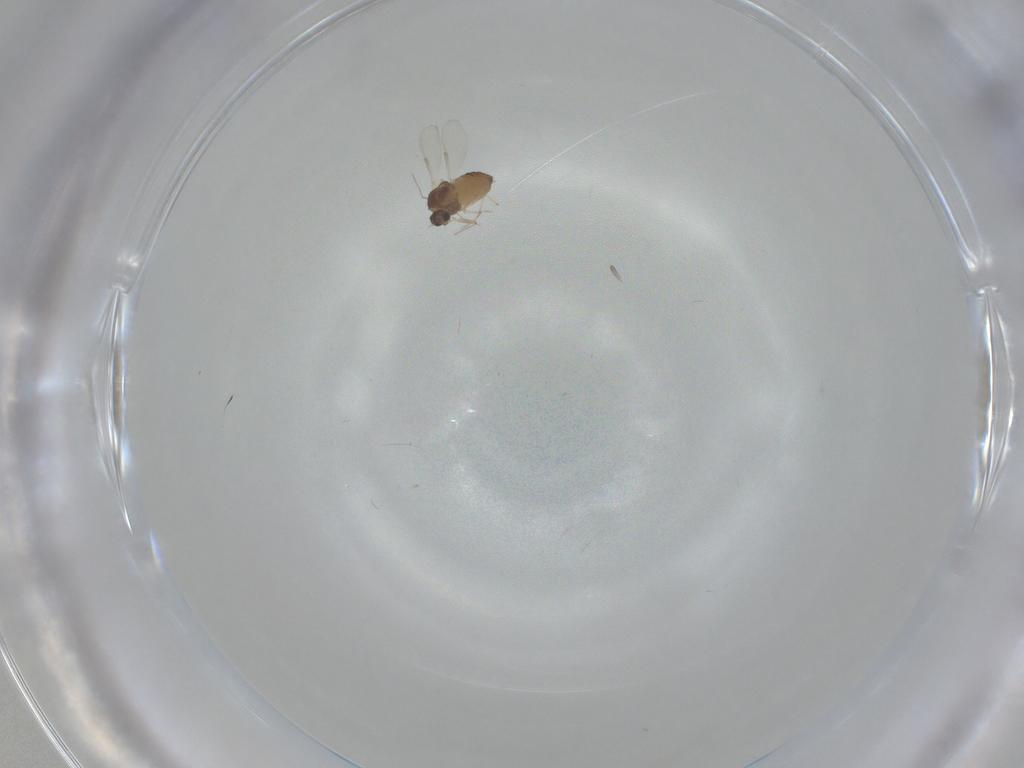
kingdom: Animalia
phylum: Arthropoda
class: Insecta
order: Diptera
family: Chironomidae
